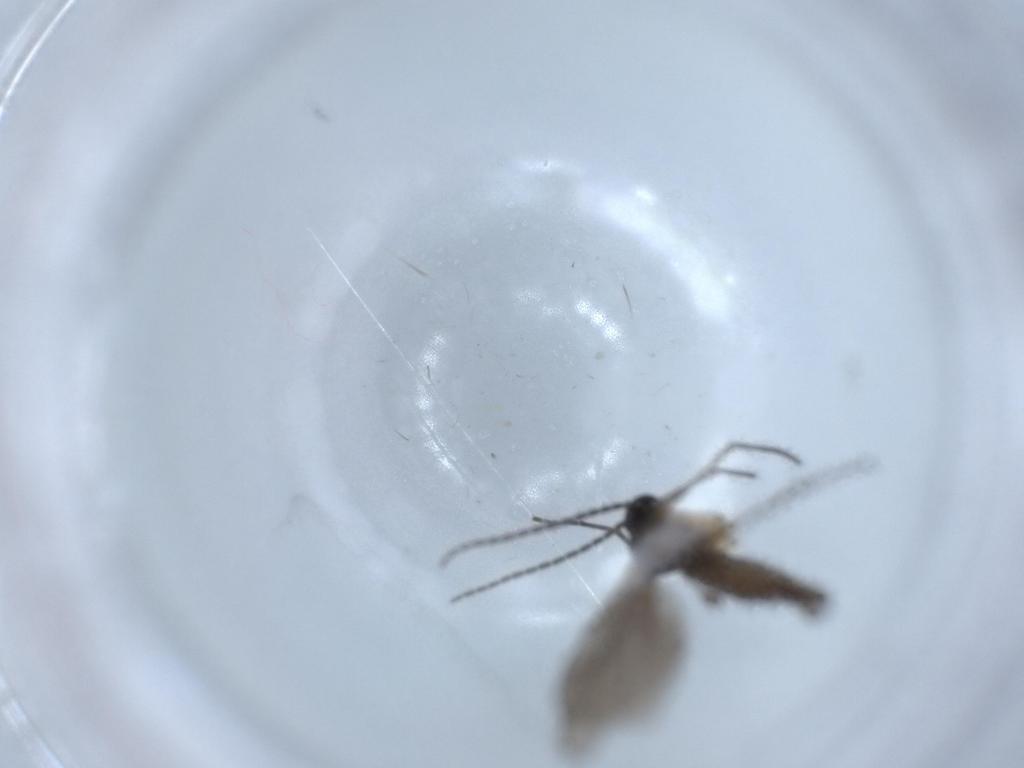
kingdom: Animalia
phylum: Arthropoda
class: Insecta
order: Diptera
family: Sciaridae
